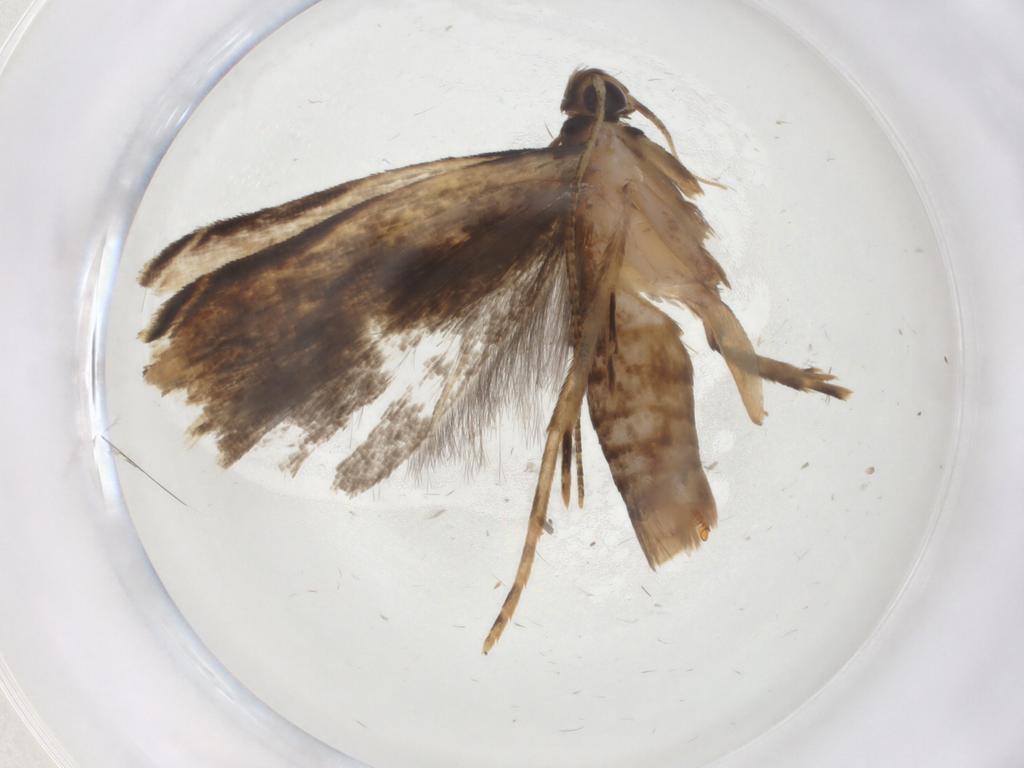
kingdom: Animalia
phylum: Arthropoda
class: Insecta
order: Lepidoptera
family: Gelechiidae
